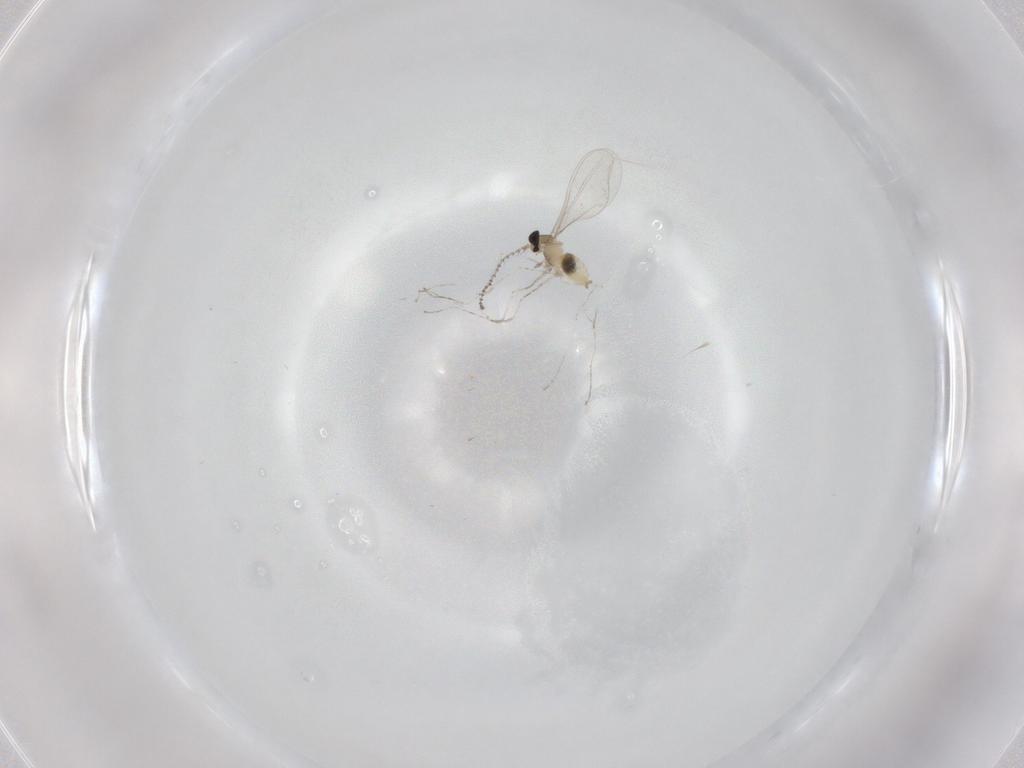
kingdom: Animalia
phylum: Arthropoda
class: Insecta
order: Diptera
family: Cecidomyiidae
